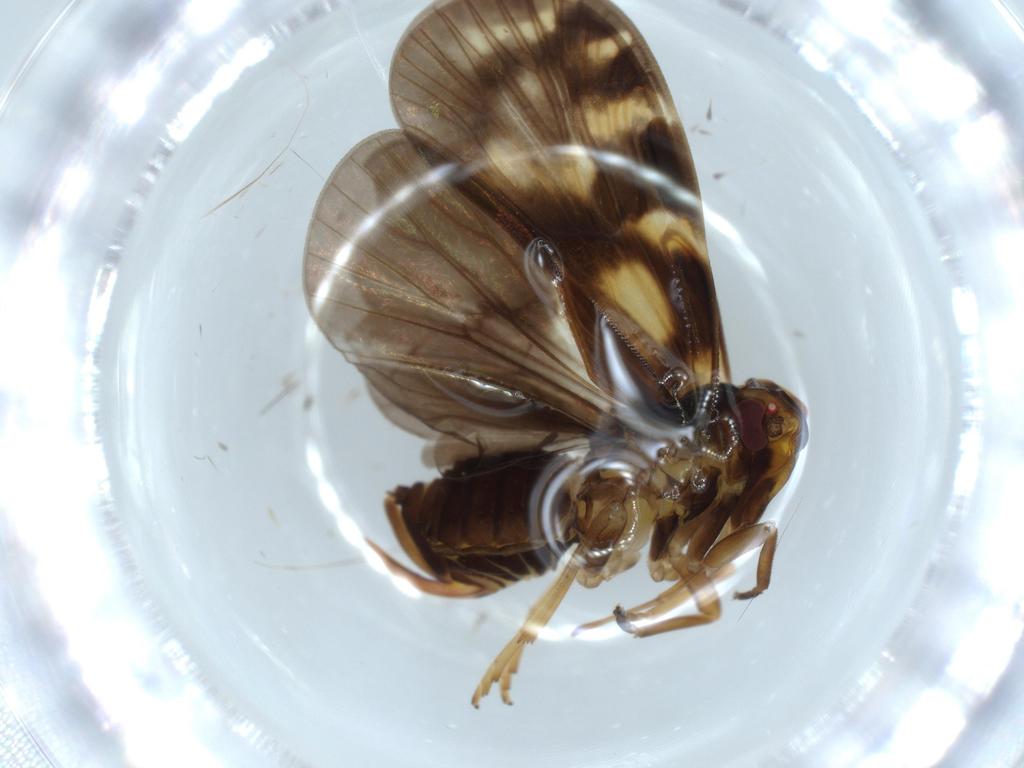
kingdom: Animalia
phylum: Arthropoda
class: Insecta
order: Hemiptera
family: Cixiidae
